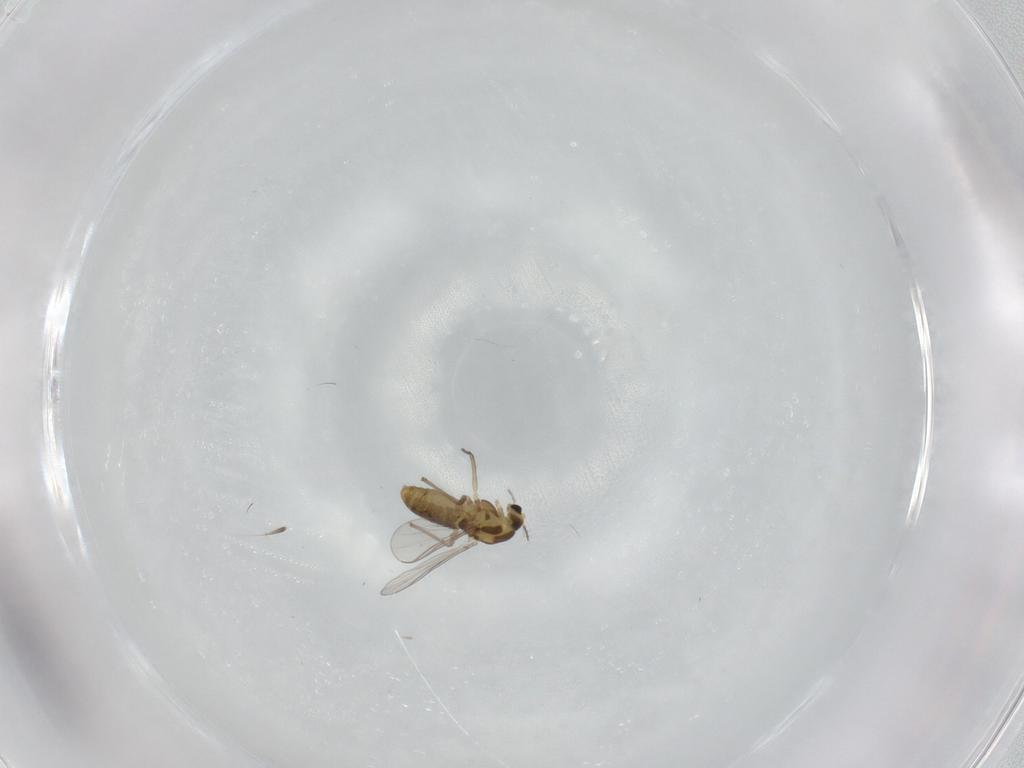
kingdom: Animalia
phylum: Arthropoda
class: Insecta
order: Diptera
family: Chironomidae
